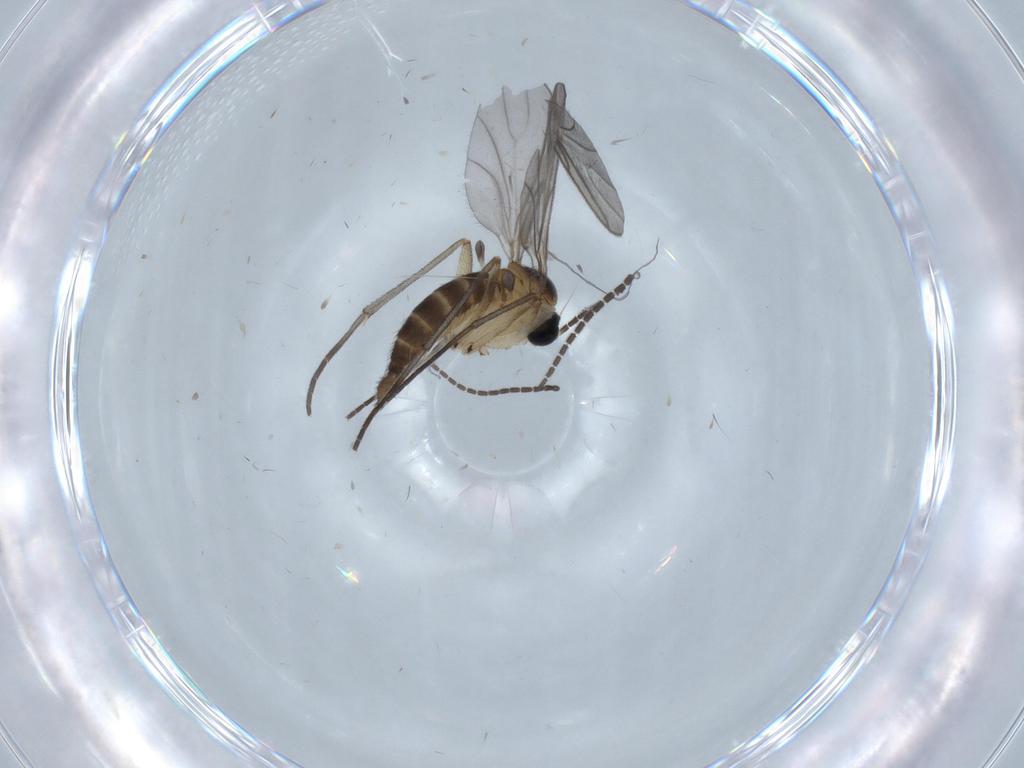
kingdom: Animalia
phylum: Arthropoda
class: Insecta
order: Diptera
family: Sciaridae
